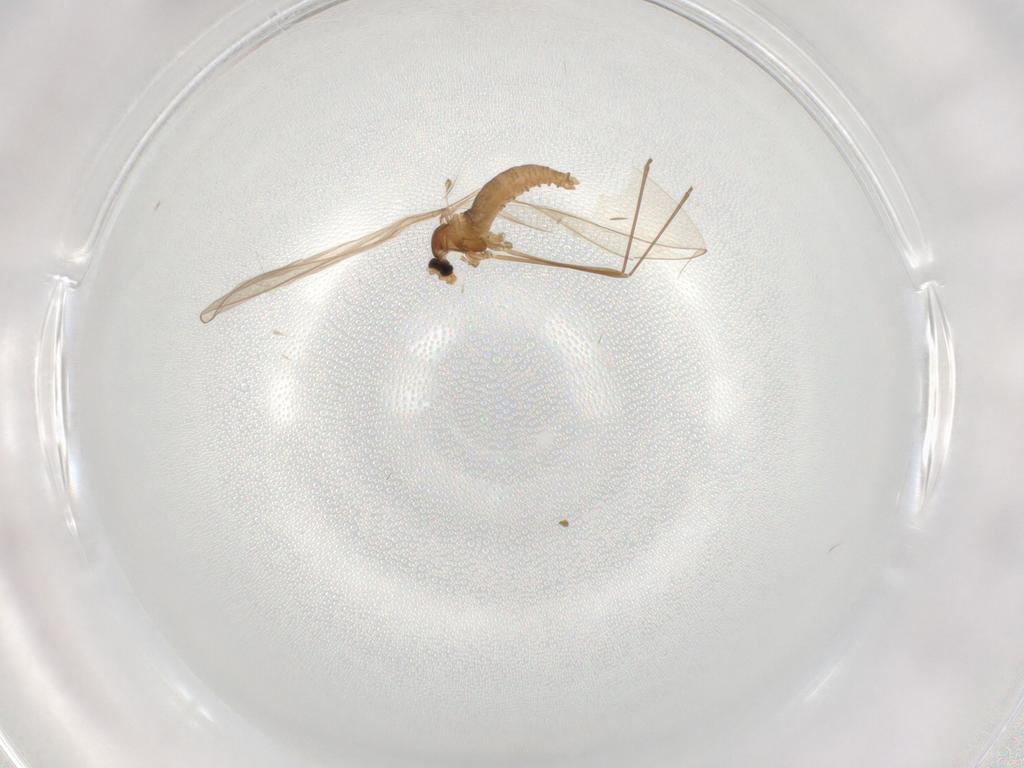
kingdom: Animalia
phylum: Arthropoda
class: Insecta
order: Diptera
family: Cecidomyiidae
